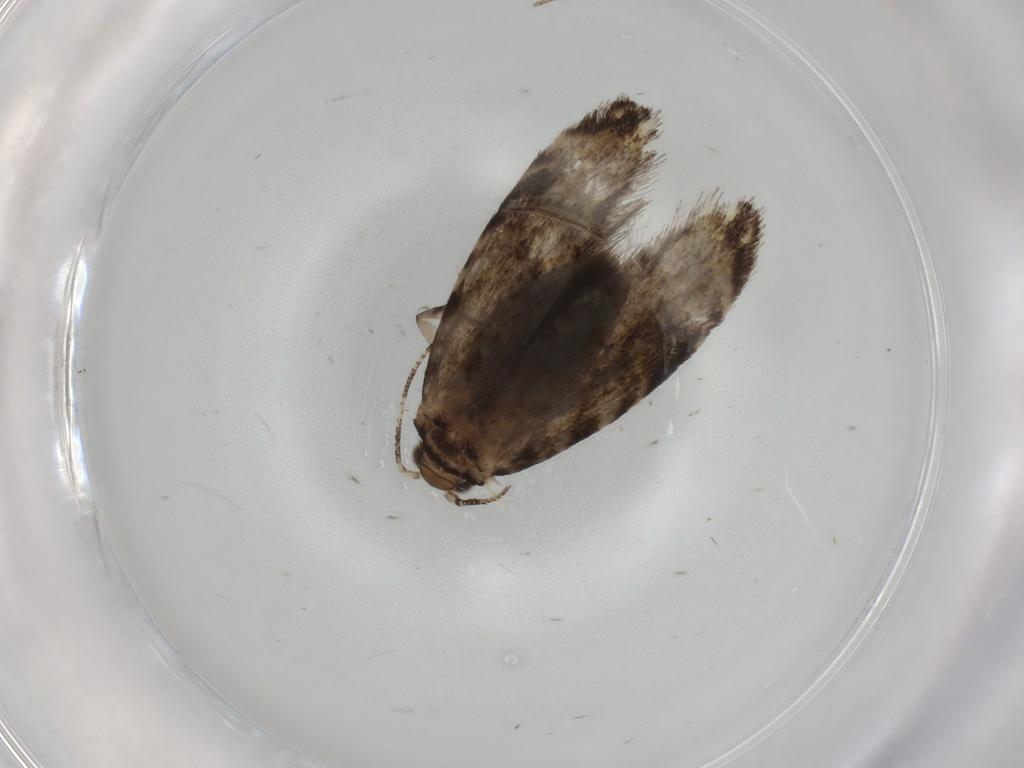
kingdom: Animalia
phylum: Arthropoda
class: Insecta
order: Lepidoptera
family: Tineidae
